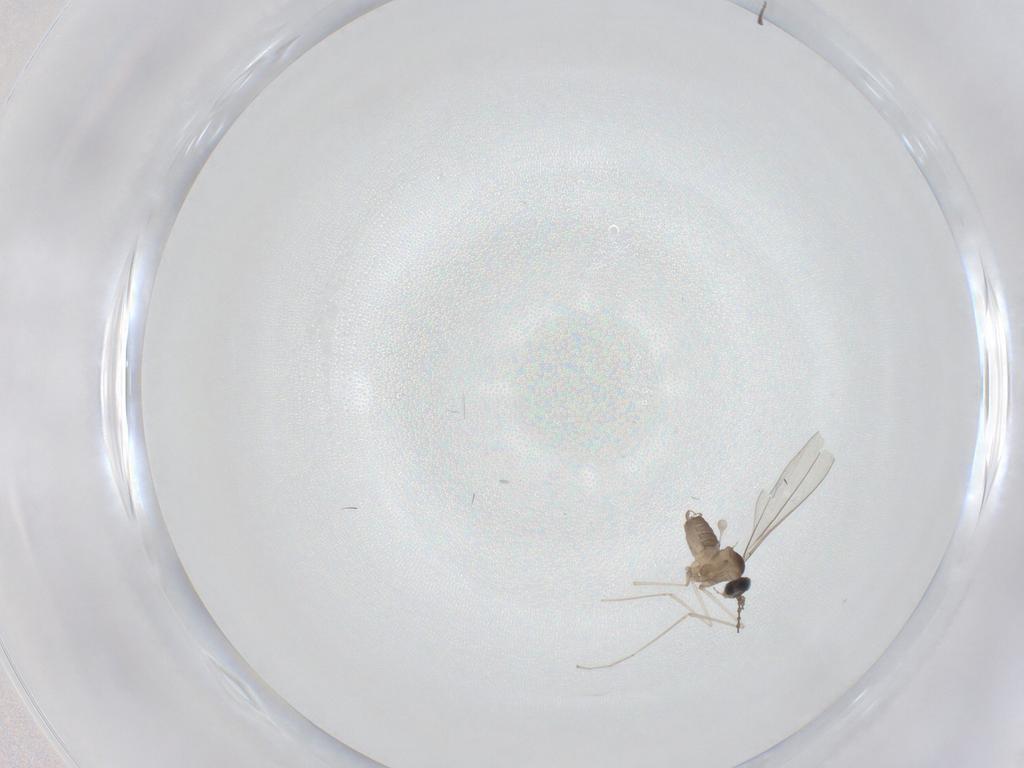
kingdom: Animalia
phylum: Arthropoda
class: Insecta
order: Diptera
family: Cecidomyiidae
